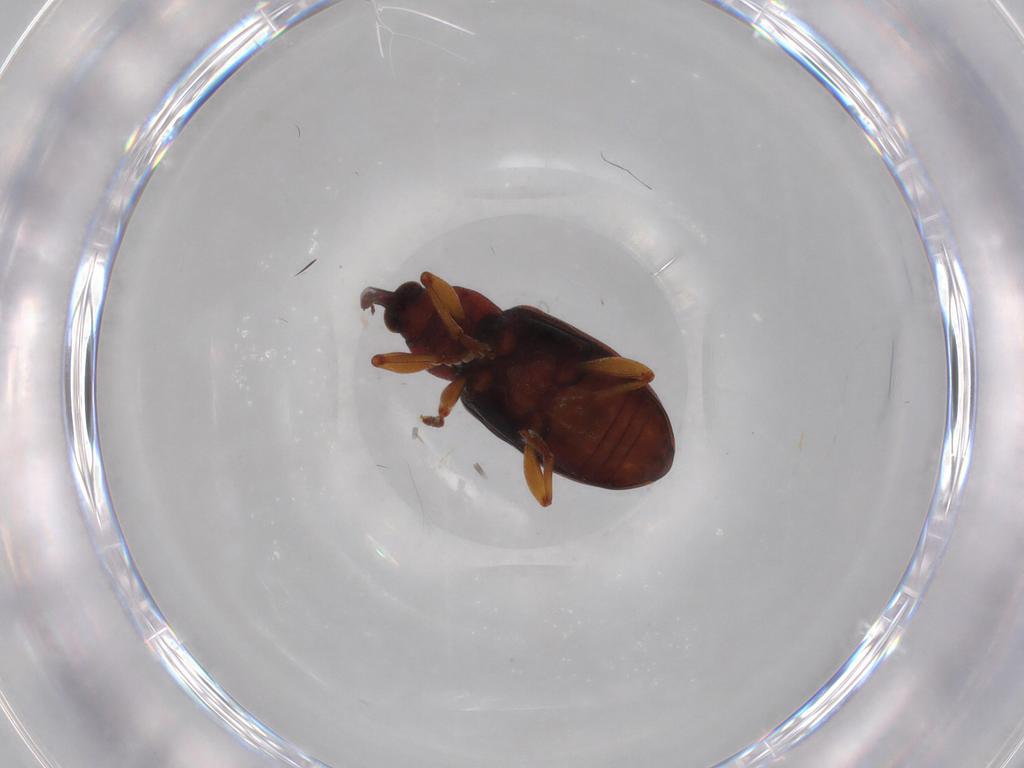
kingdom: Animalia
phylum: Arthropoda
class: Insecta
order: Coleoptera
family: Curculionidae
